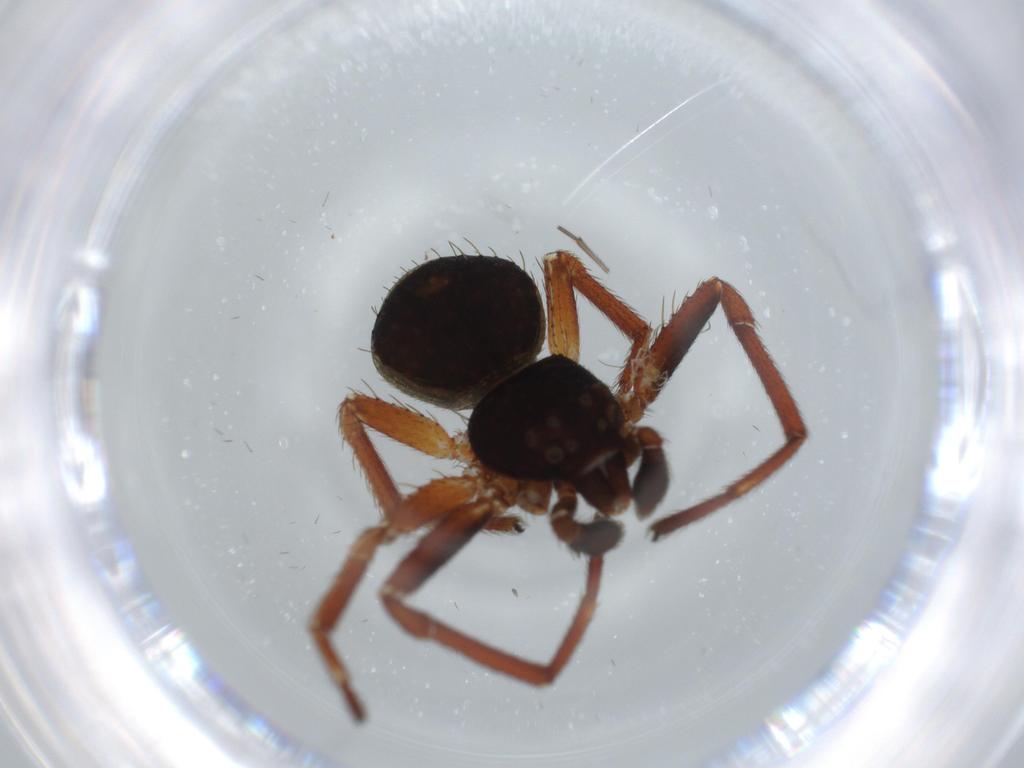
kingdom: Animalia
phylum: Arthropoda
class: Arachnida
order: Araneae
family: Thomisidae
